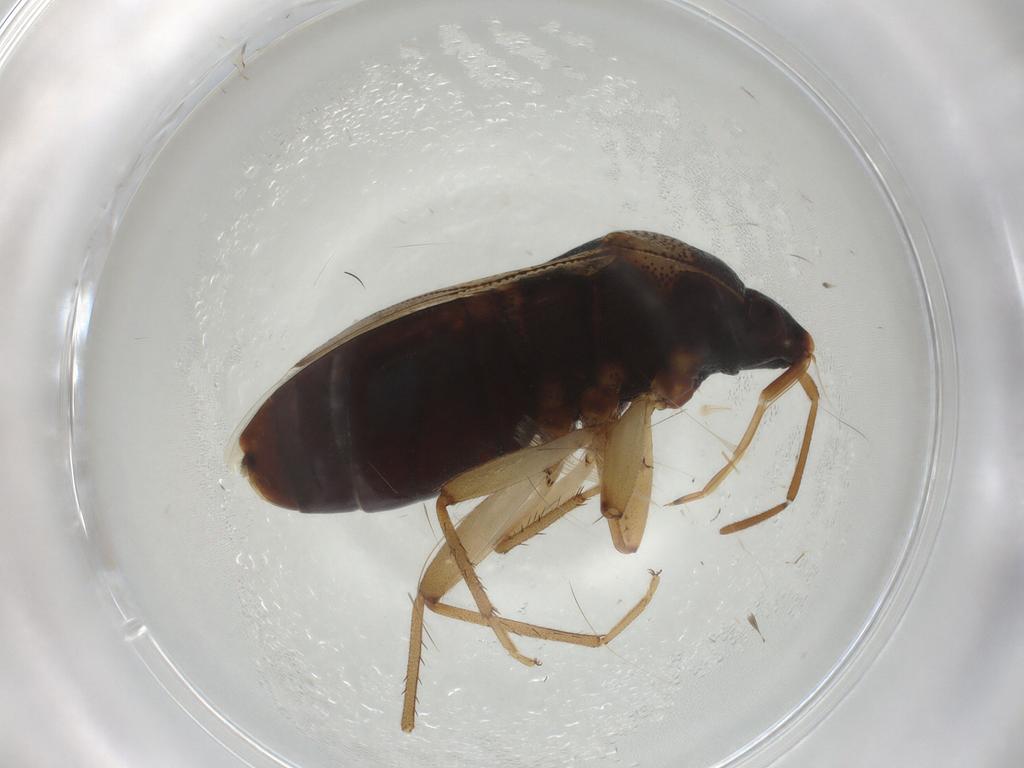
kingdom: Animalia
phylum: Arthropoda
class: Insecta
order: Hemiptera
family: Rhyparochromidae
